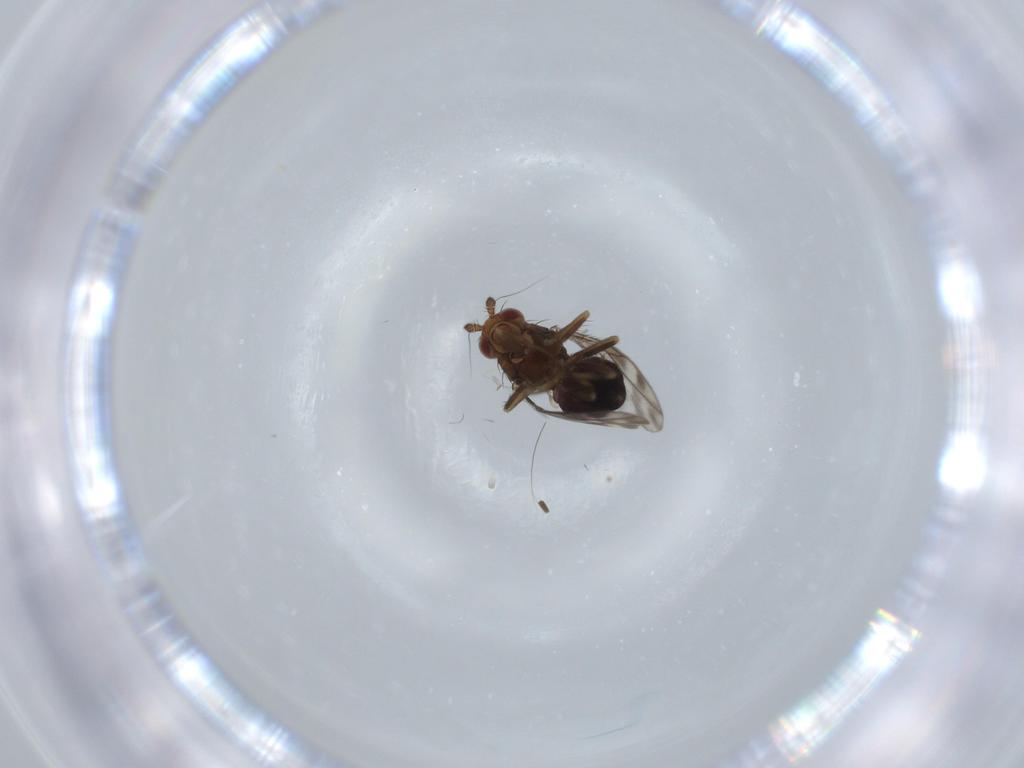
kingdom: Animalia
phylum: Arthropoda
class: Insecta
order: Diptera
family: Sphaeroceridae
